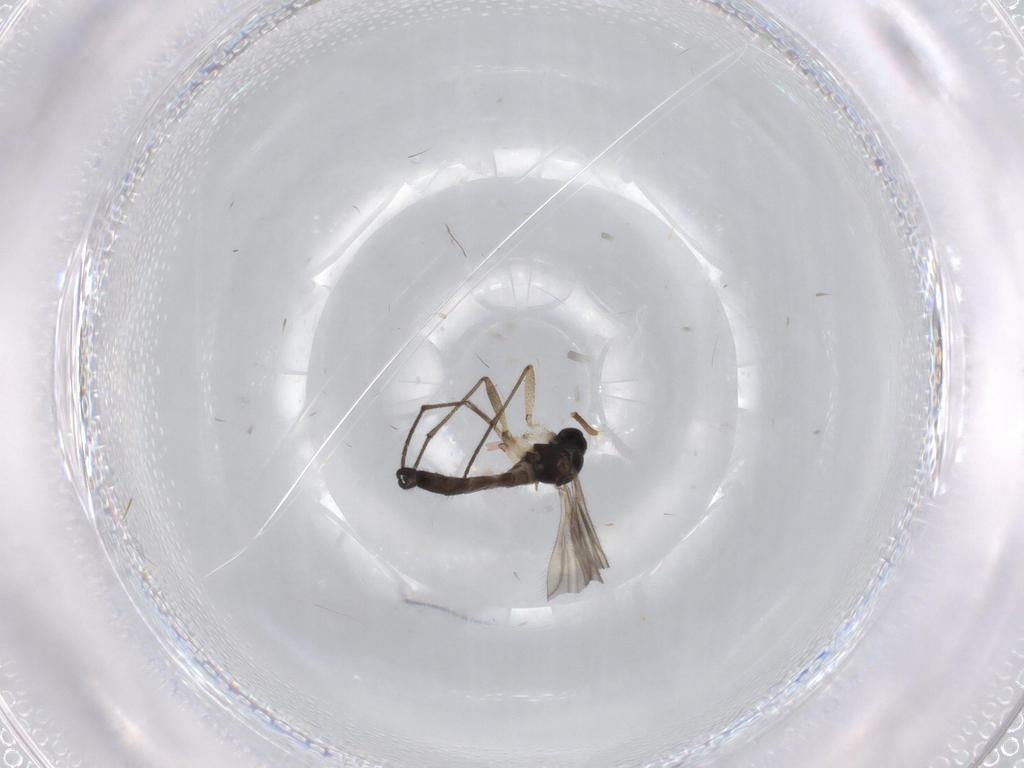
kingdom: Animalia
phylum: Arthropoda
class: Insecta
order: Diptera
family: Sciaridae
